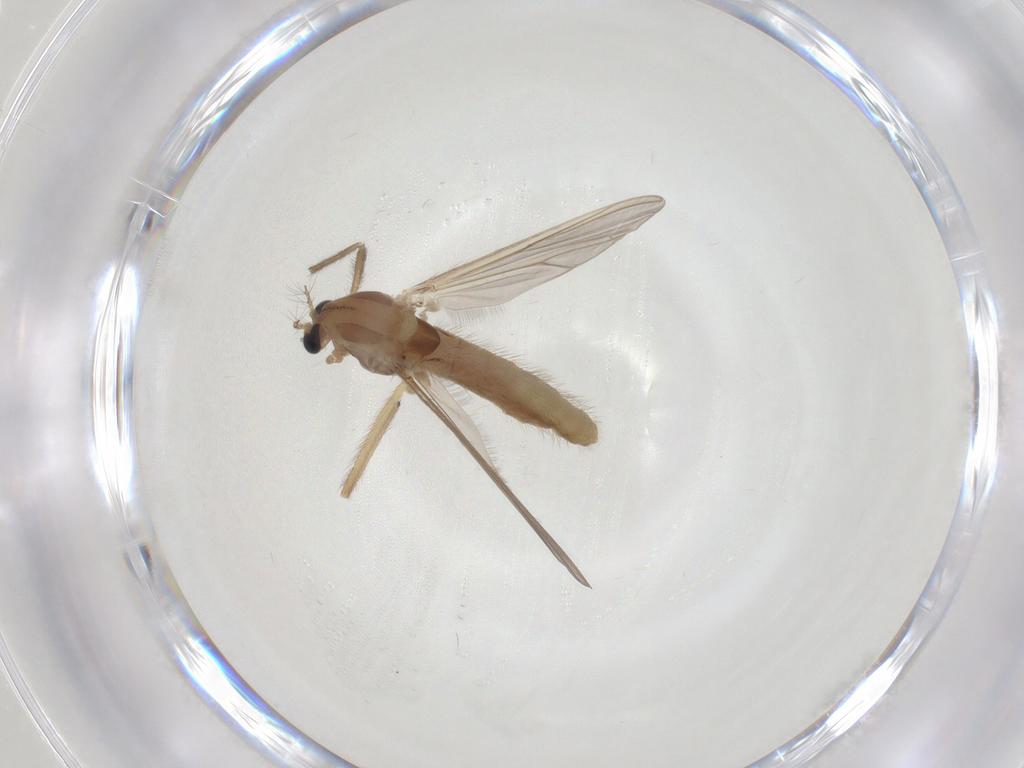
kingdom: Animalia
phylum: Arthropoda
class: Insecta
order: Diptera
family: Chironomidae
